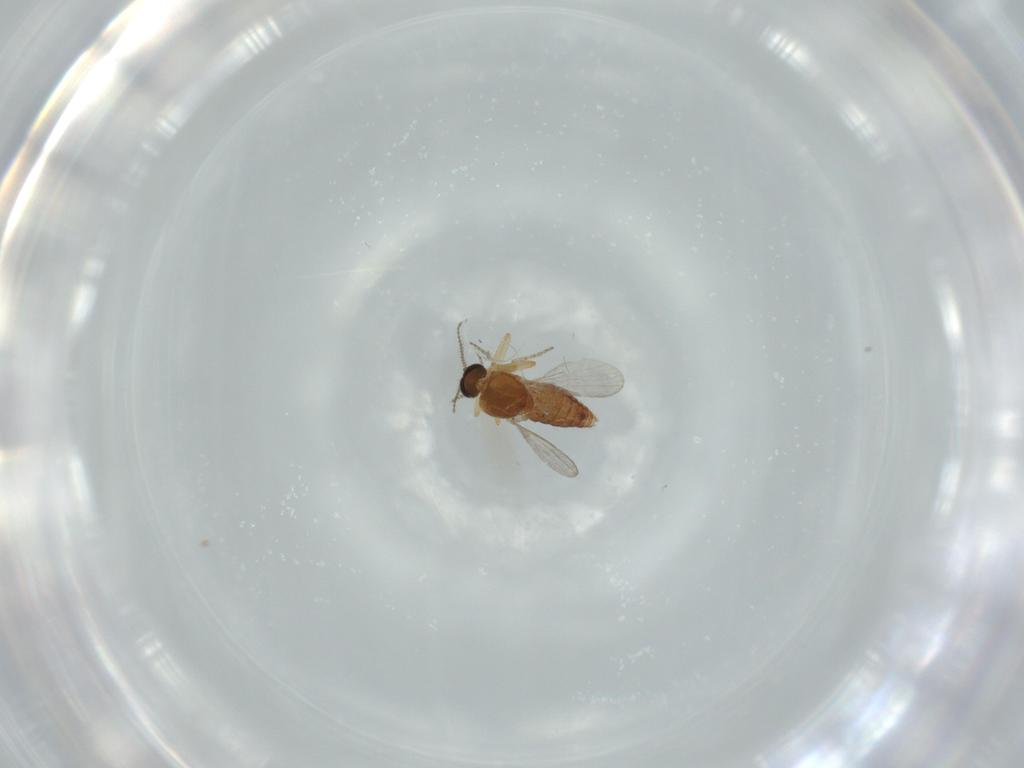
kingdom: Animalia
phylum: Arthropoda
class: Insecta
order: Diptera
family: Ceratopogonidae
